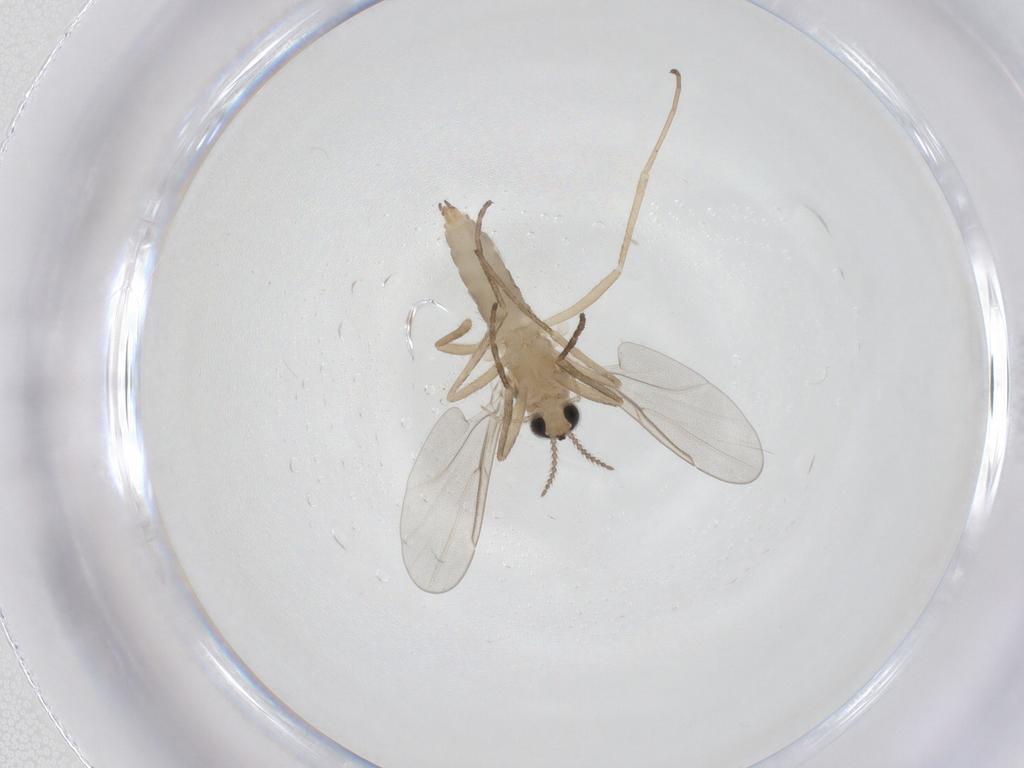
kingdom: Animalia
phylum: Arthropoda
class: Insecta
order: Diptera
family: Cecidomyiidae
